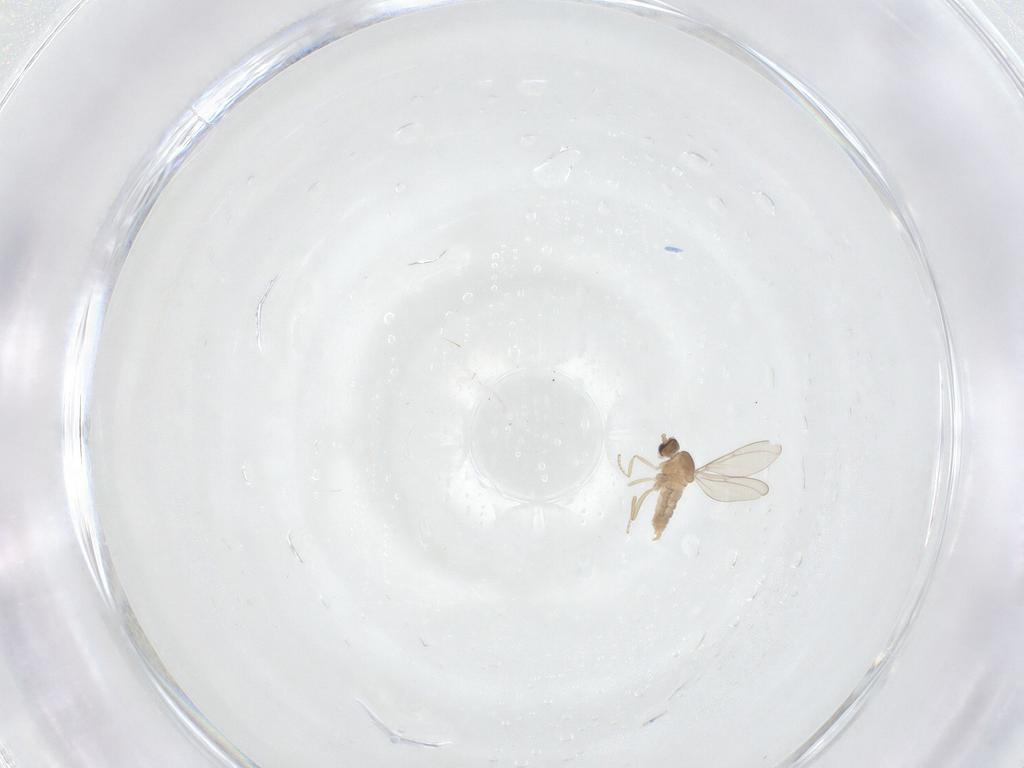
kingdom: Animalia
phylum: Arthropoda
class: Insecta
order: Diptera
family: Cecidomyiidae
